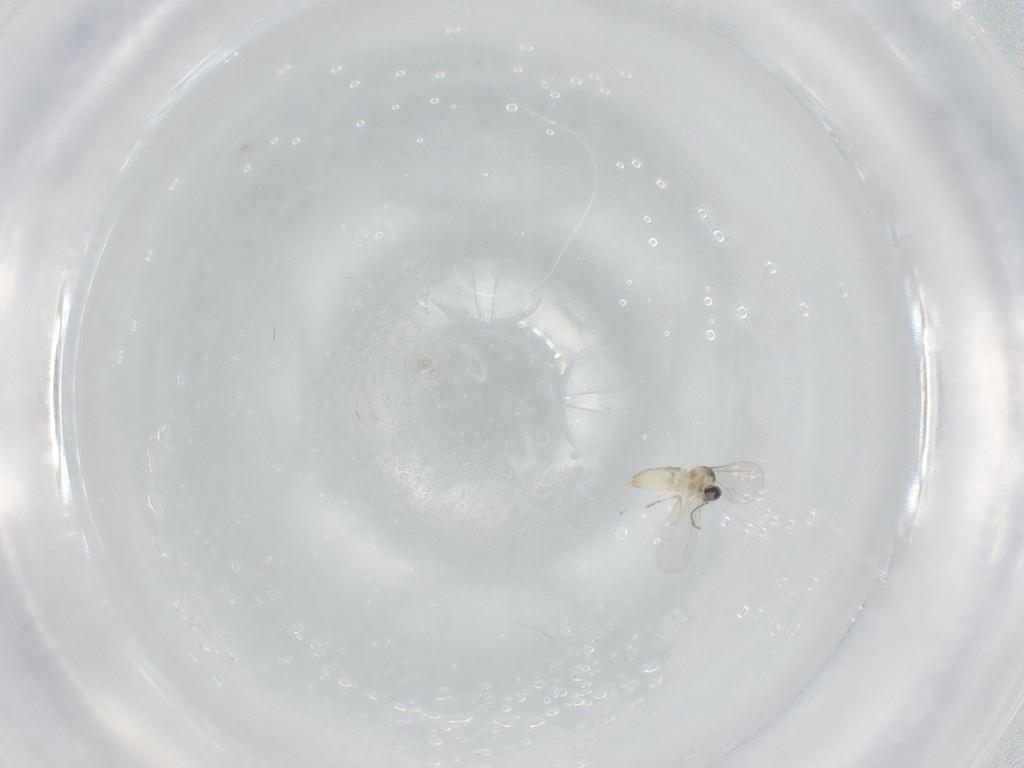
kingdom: Animalia
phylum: Arthropoda
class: Insecta
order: Diptera
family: Cecidomyiidae
